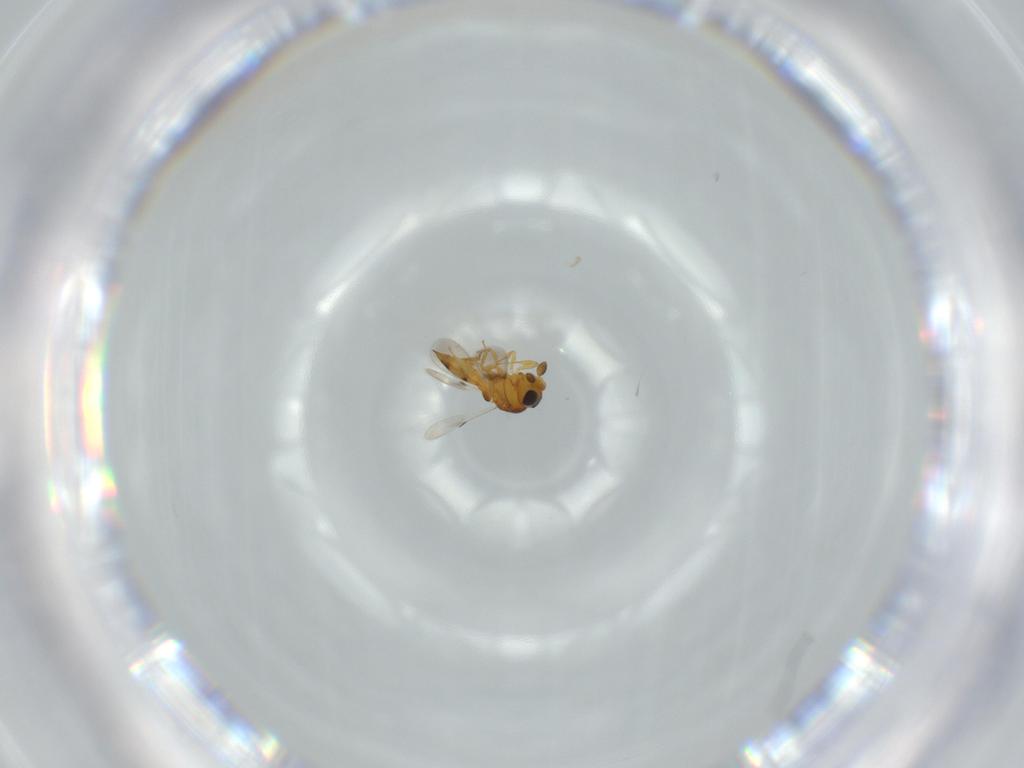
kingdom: Animalia
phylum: Arthropoda
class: Insecta
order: Hymenoptera
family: Scelionidae
